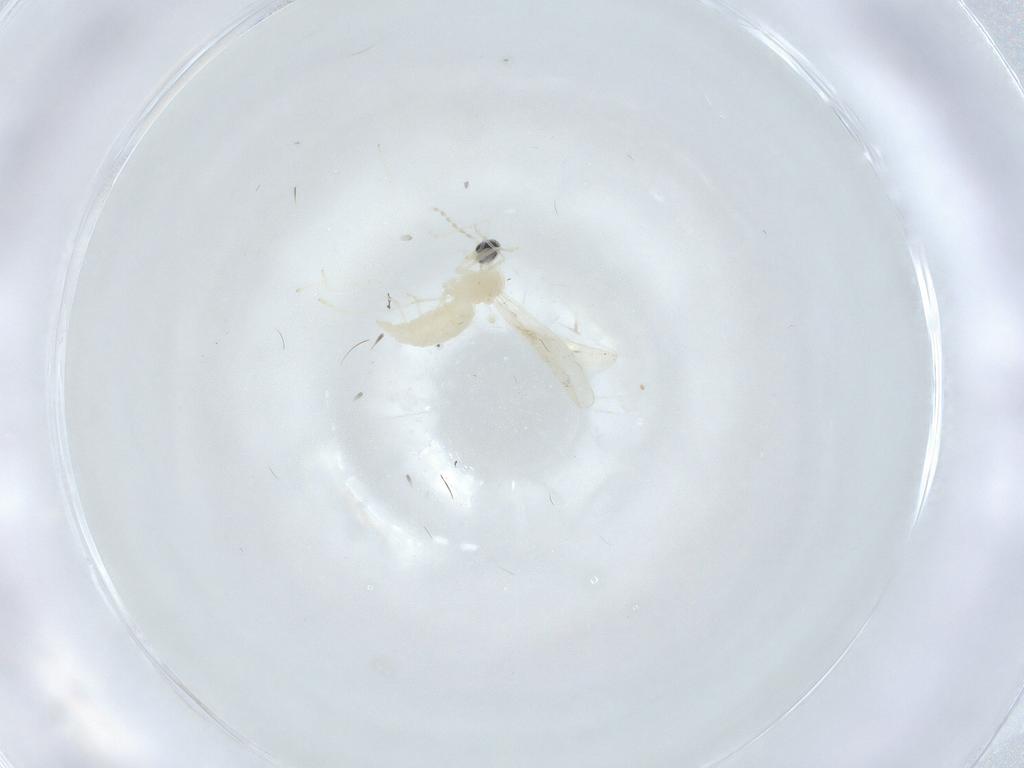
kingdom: Animalia
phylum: Arthropoda
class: Insecta
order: Diptera
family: Cecidomyiidae
